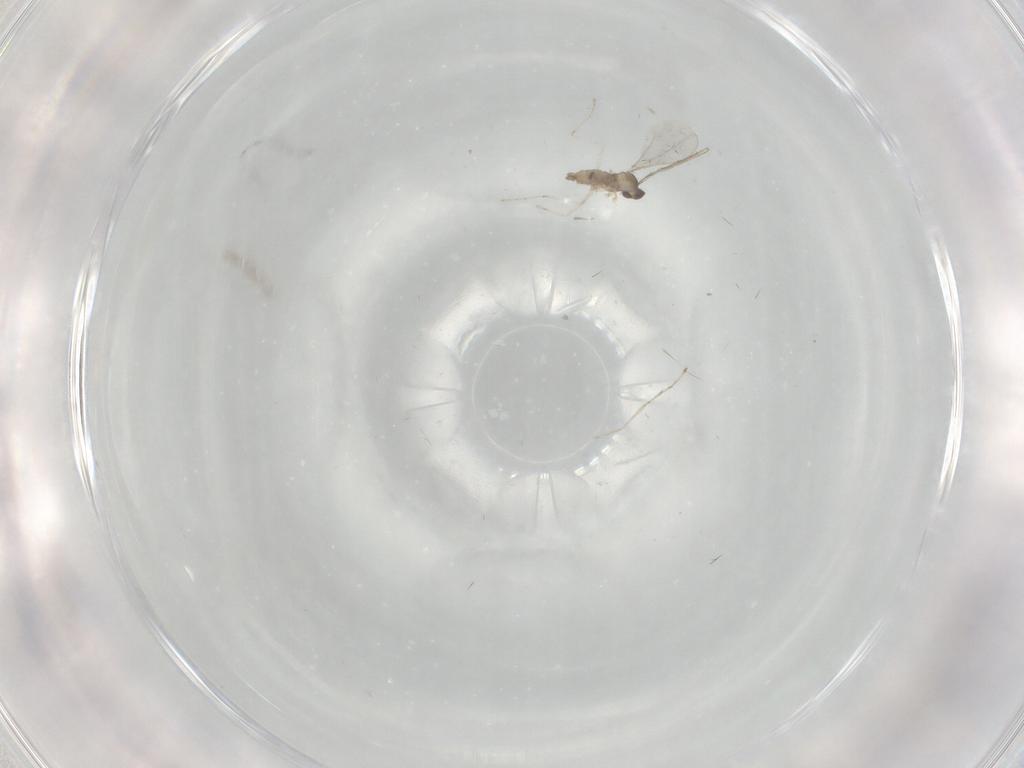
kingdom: Animalia
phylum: Arthropoda
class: Insecta
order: Diptera
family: Cecidomyiidae
